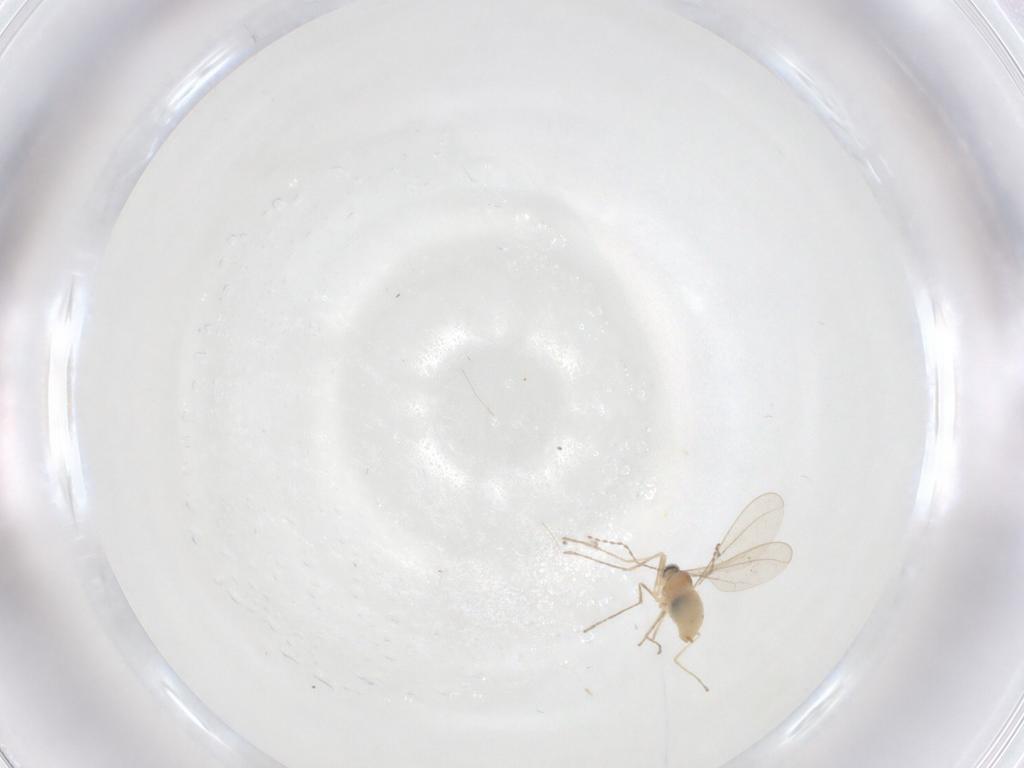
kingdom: Animalia
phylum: Arthropoda
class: Insecta
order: Diptera
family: Cecidomyiidae
